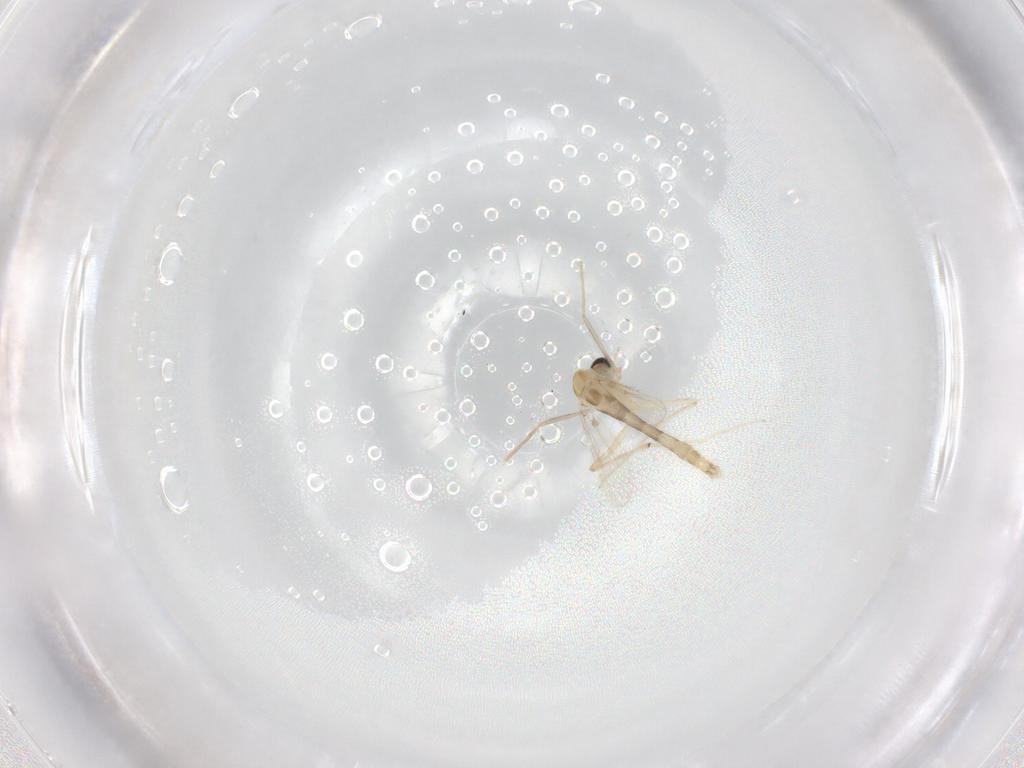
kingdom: Animalia
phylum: Arthropoda
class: Insecta
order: Diptera
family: Chironomidae
